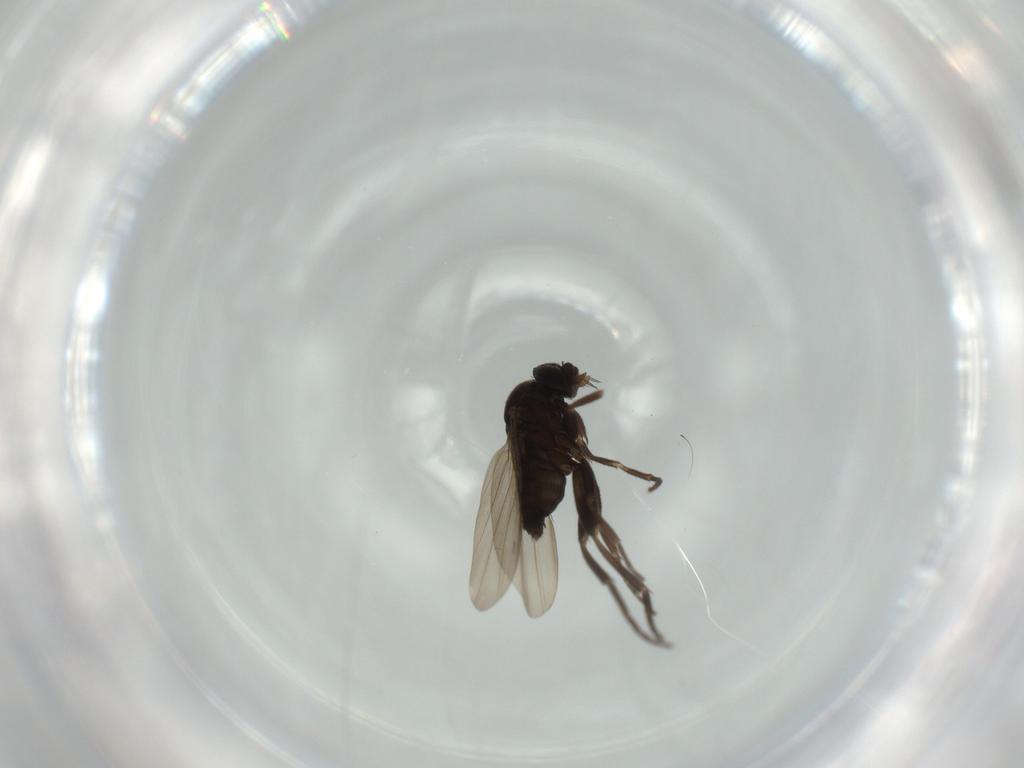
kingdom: Animalia
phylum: Arthropoda
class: Insecta
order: Diptera
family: Phoridae
